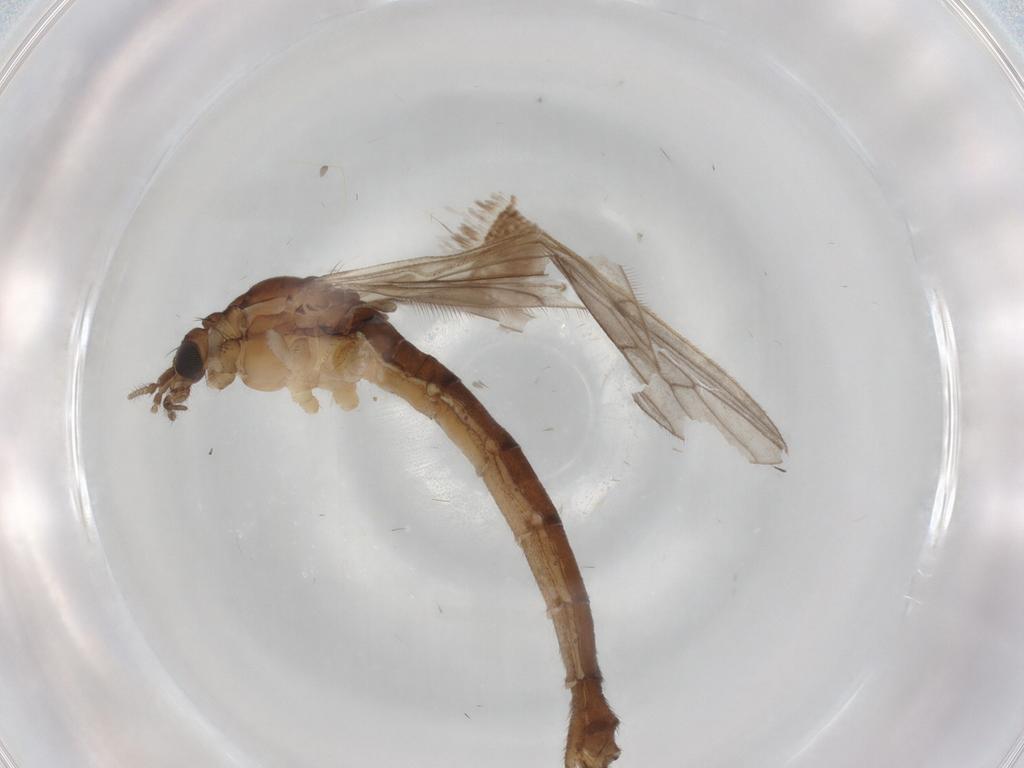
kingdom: Animalia
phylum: Arthropoda
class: Insecta
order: Diptera
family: Limoniidae
